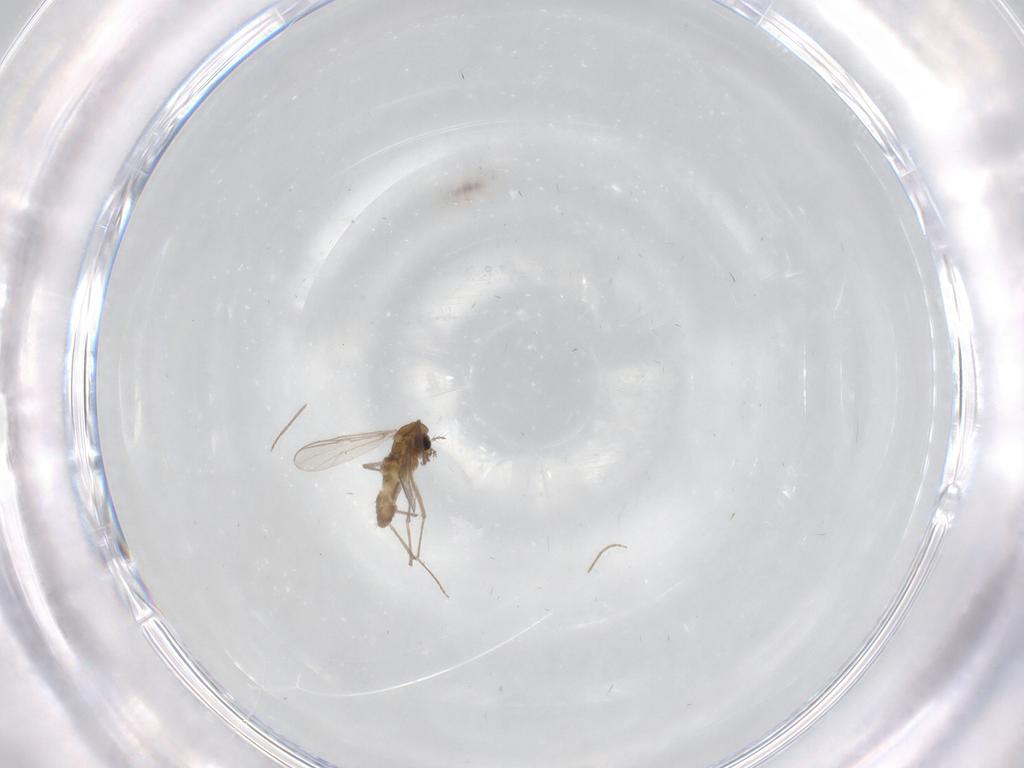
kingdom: Animalia
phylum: Arthropoda
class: Insecta
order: Diptera
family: Chironomidae
